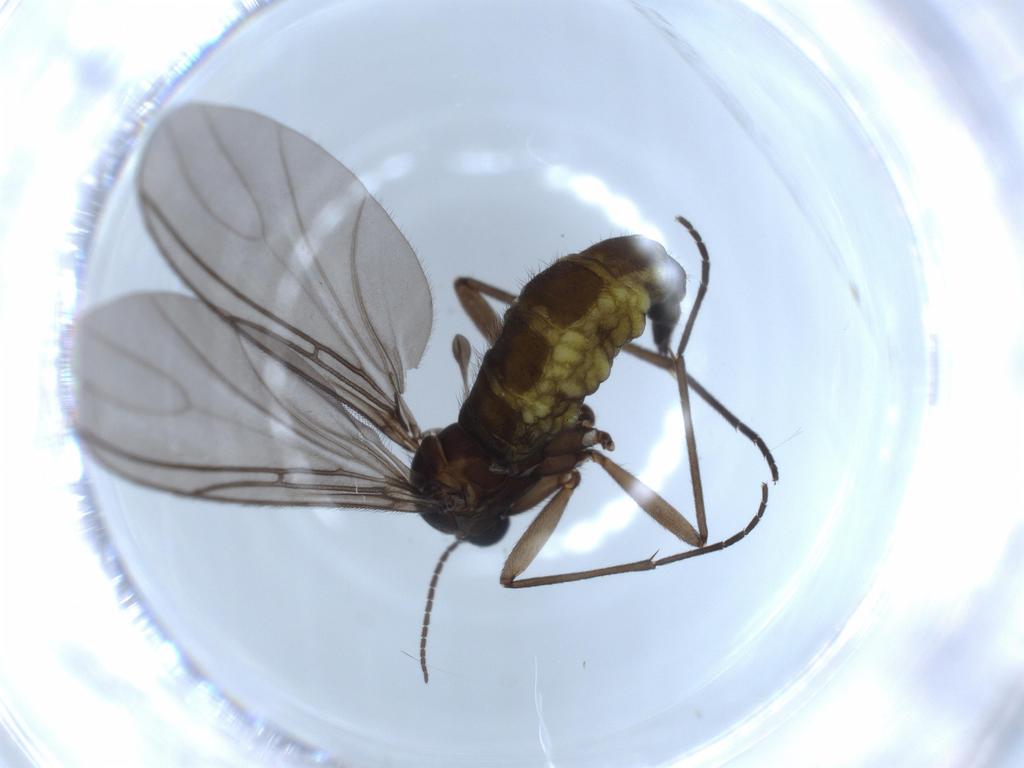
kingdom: Animalia
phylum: Arthropoda
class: Insecta
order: Diptera
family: Sciaridae
